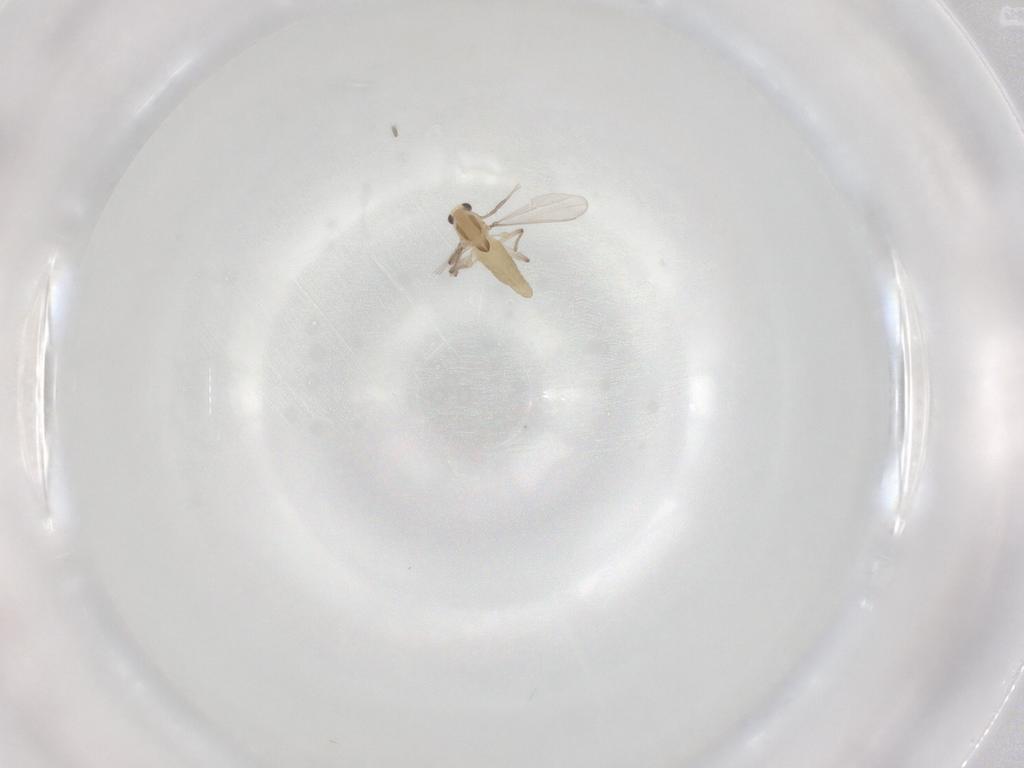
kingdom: Animalia
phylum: Arthropoda
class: Insecta
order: Diptera
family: Chironomidae
